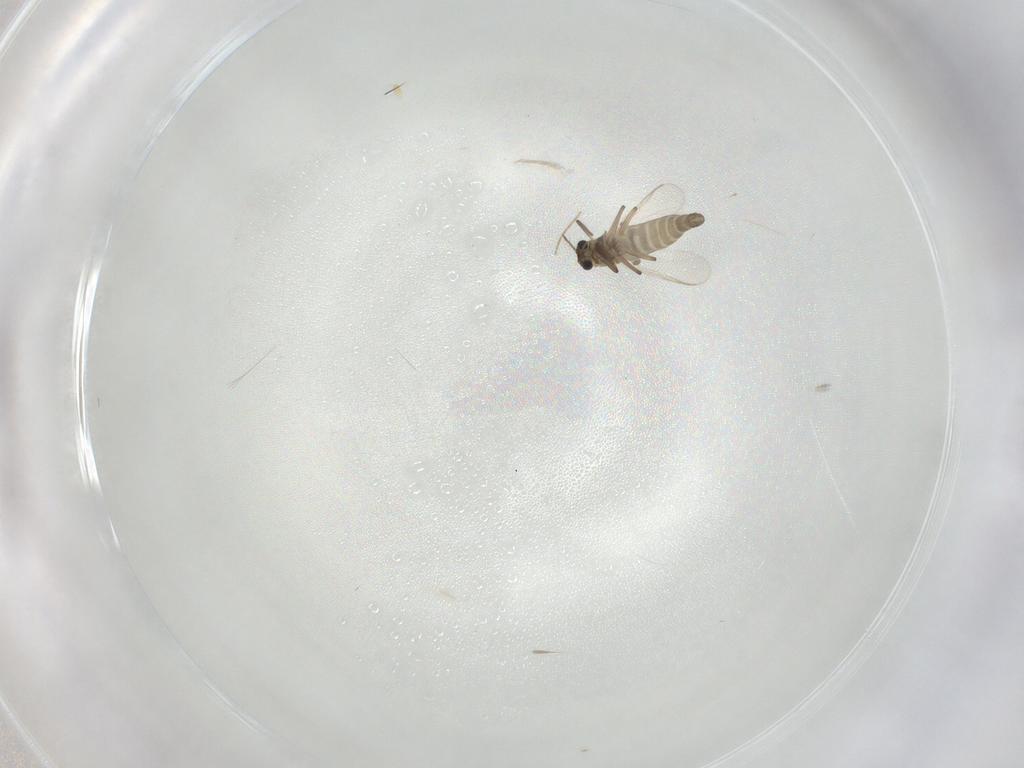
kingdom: Animalia
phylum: Arthropoda
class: Insecta
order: Diptera
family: Chironomidae
